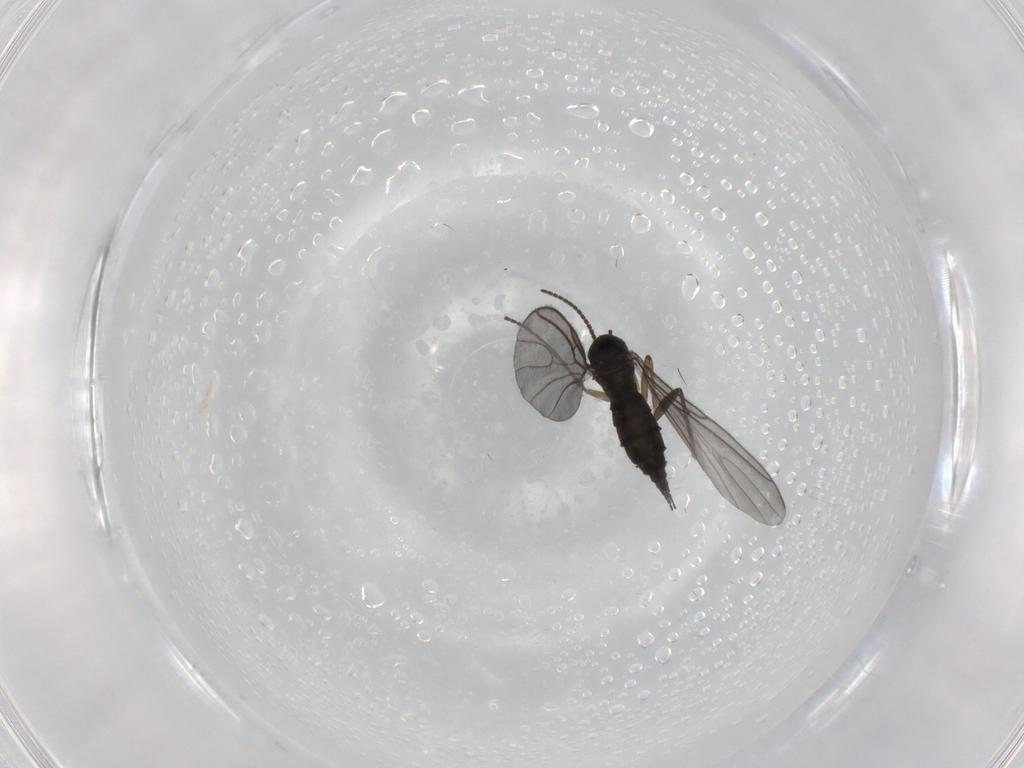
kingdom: Animalia
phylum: Arthropoda
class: Insecta
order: Diptera
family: Sciaridae
